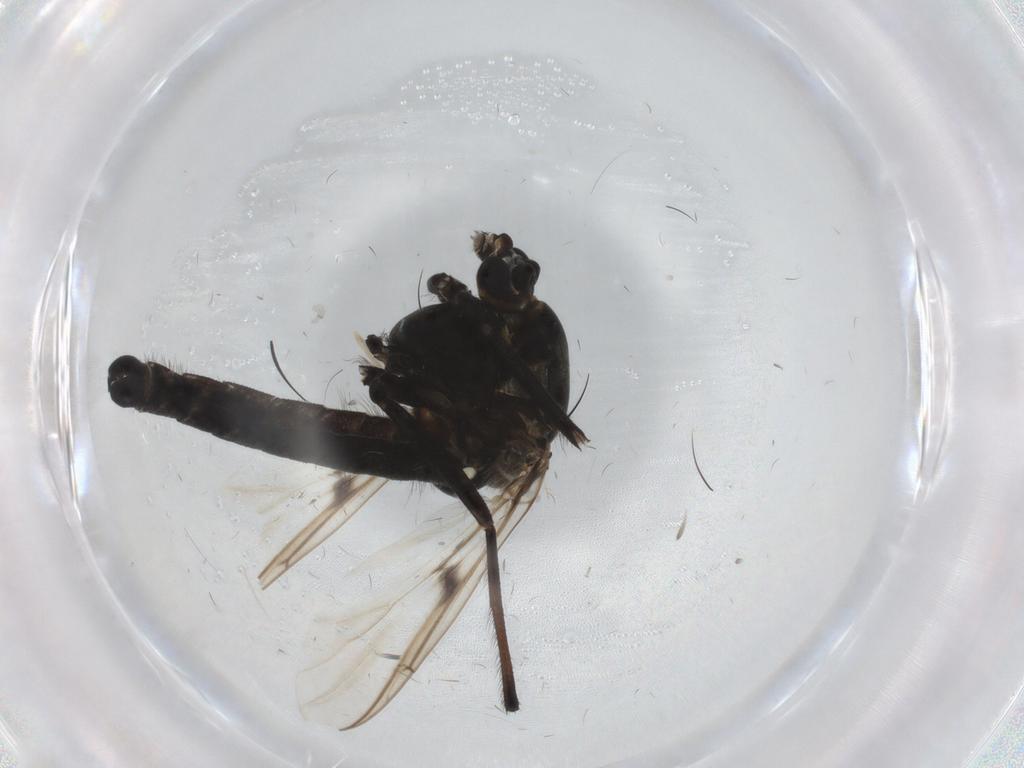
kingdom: Animalia
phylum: Arthropoda
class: Insecta
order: Diptera
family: Chironomidae
